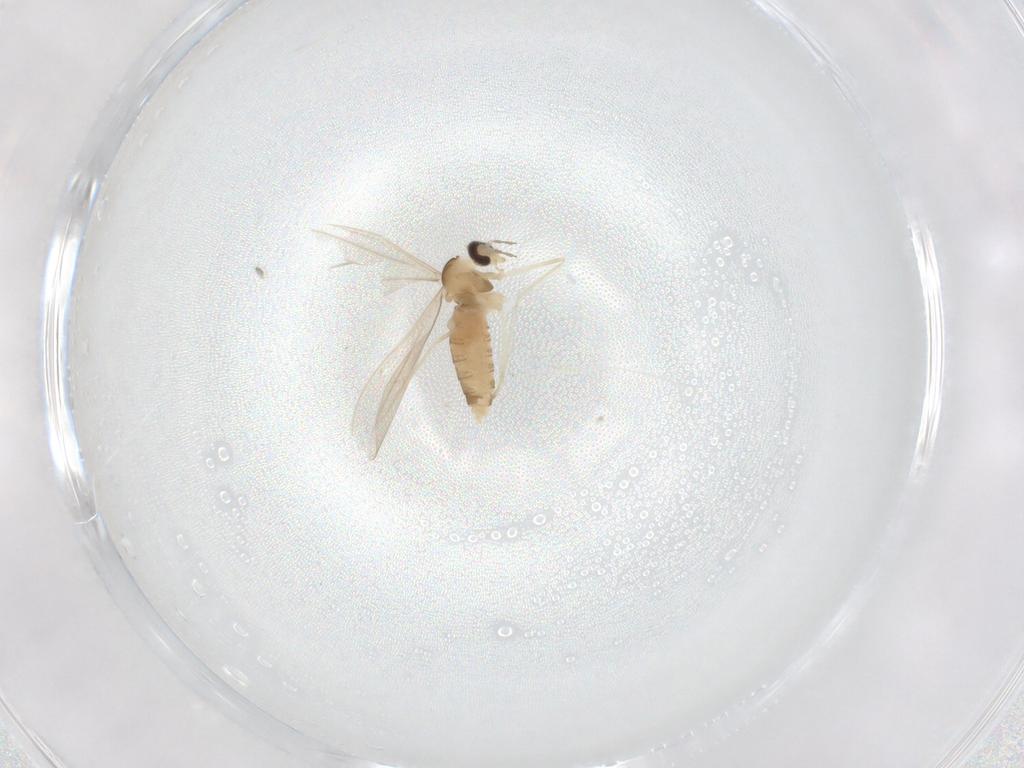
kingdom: Animalia
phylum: Arthropoda
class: Insecta
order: Diptera
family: Cecidomyiidae
